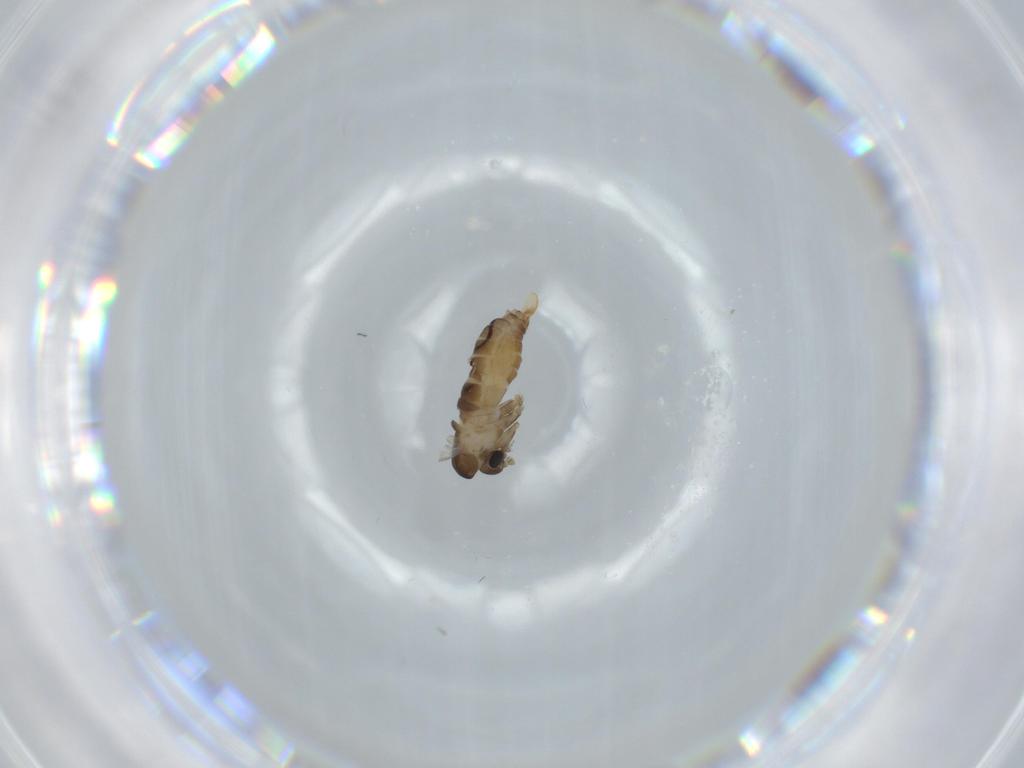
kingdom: Animalia
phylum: Arthropoda
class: Insecta
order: Diptera
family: Psychodidae
